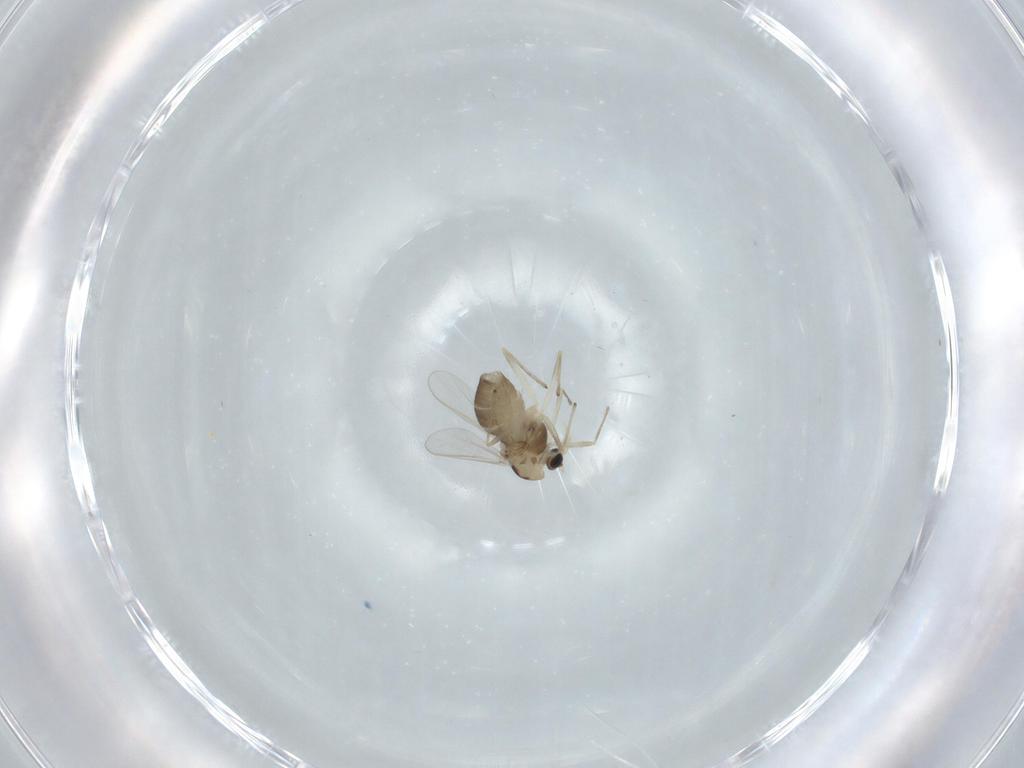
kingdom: Animalia
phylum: Arthropoda
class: Insecta
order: Diptera
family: Chironomidae
